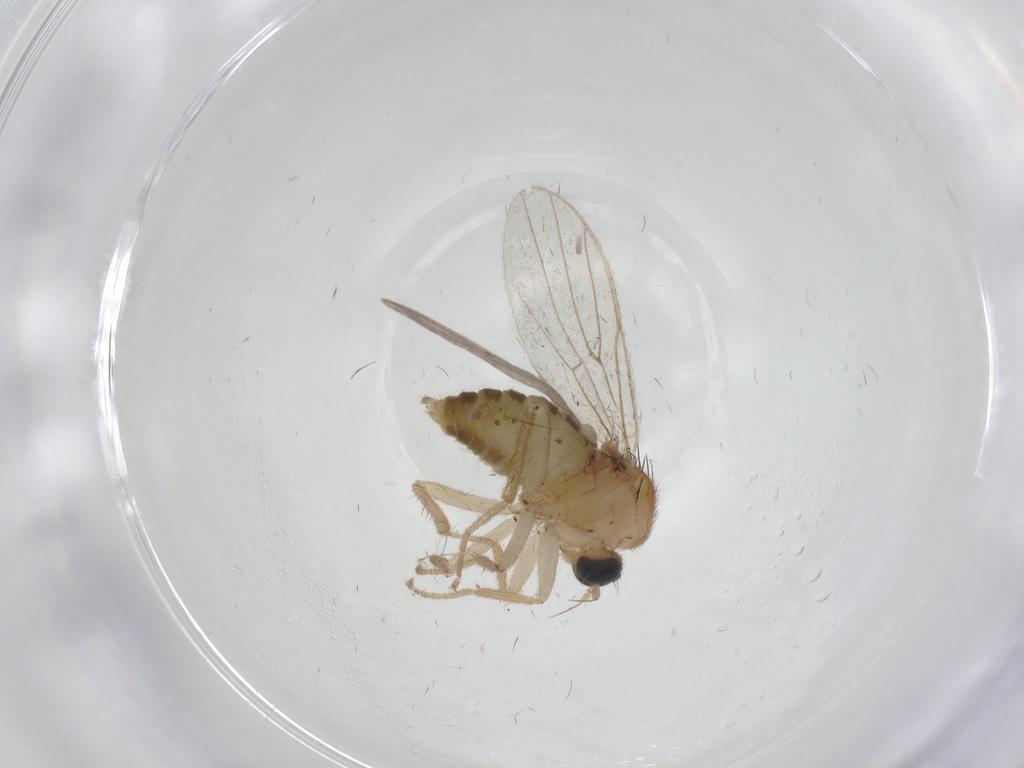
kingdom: Animalia
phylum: Arthropoda
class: Insecta
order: Diptera
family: Hybotidae
